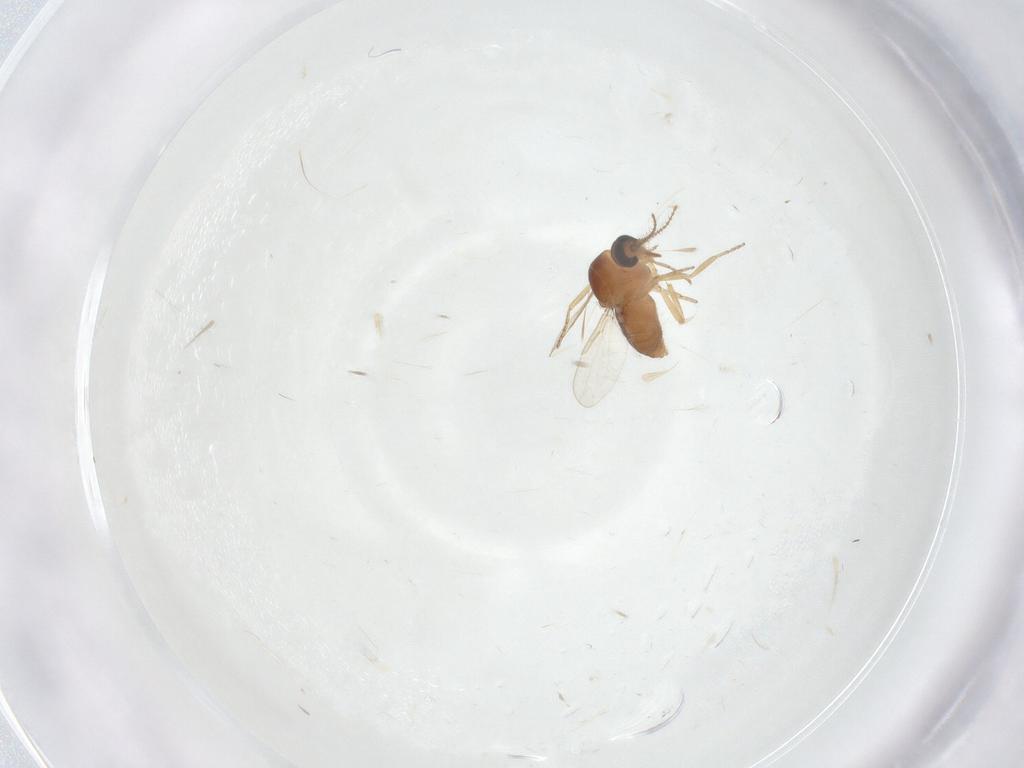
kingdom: Animalia
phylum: Arthropoda
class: Insecta
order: Diptera
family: Ceratopogonidae
